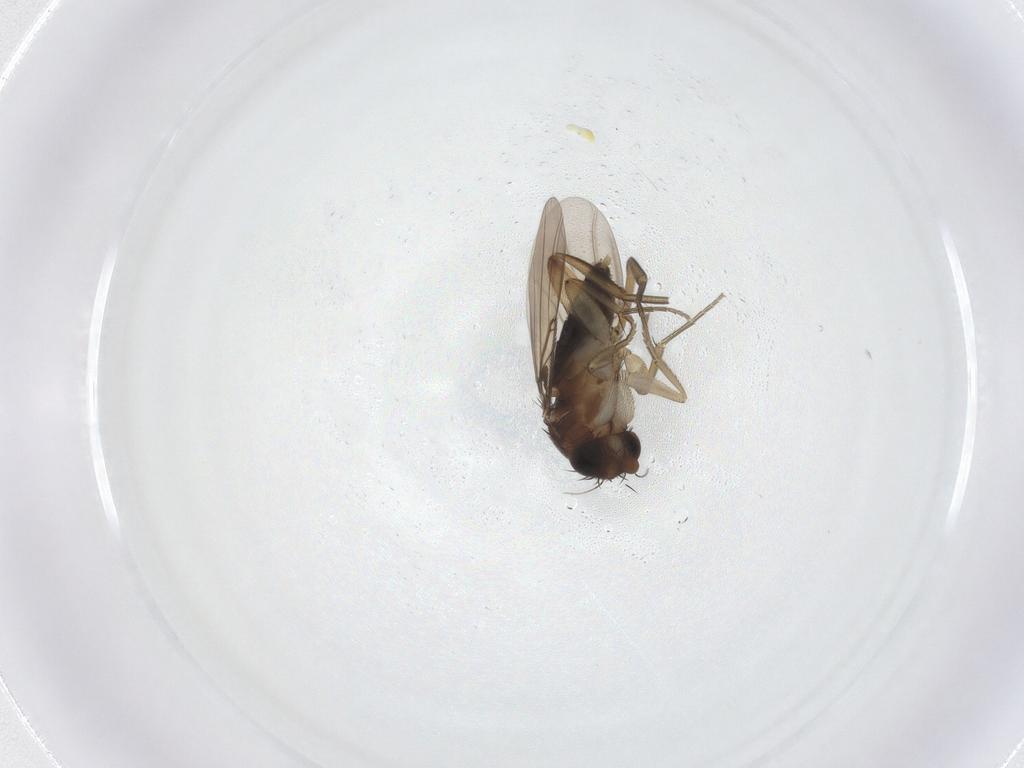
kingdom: Animalia
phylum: Arthropoda
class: Insecta
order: Diptera
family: Phoridae
